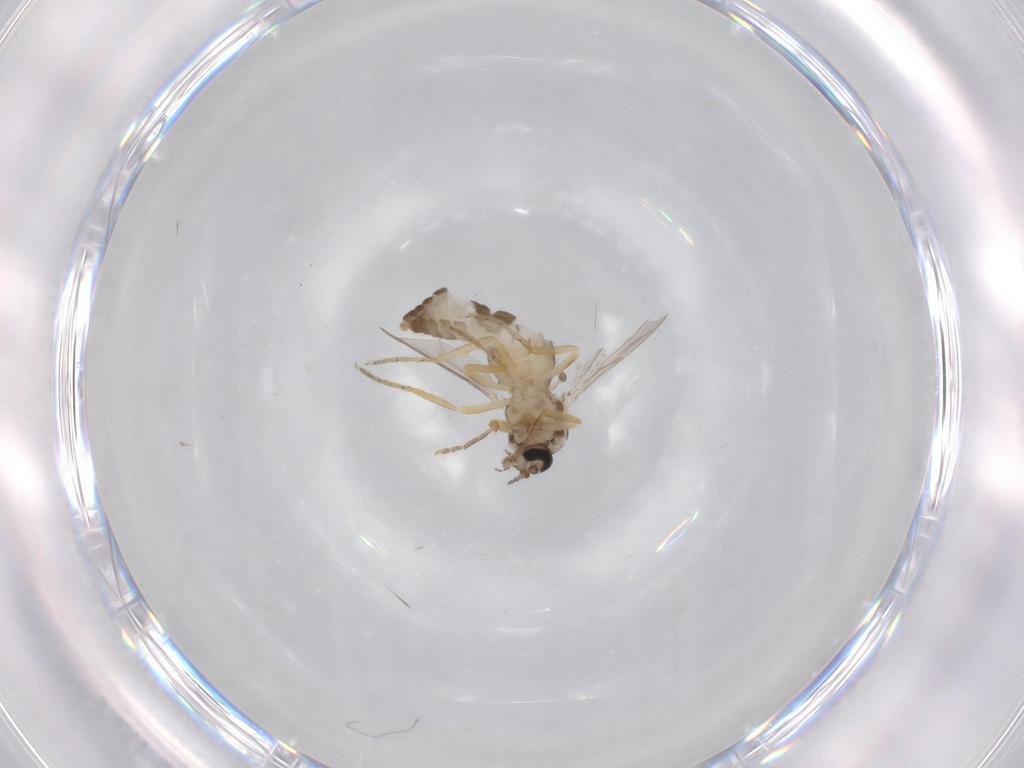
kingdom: Animalia
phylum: Arthropoda
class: Insecta
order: Diptera
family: Ceratopogonidae
